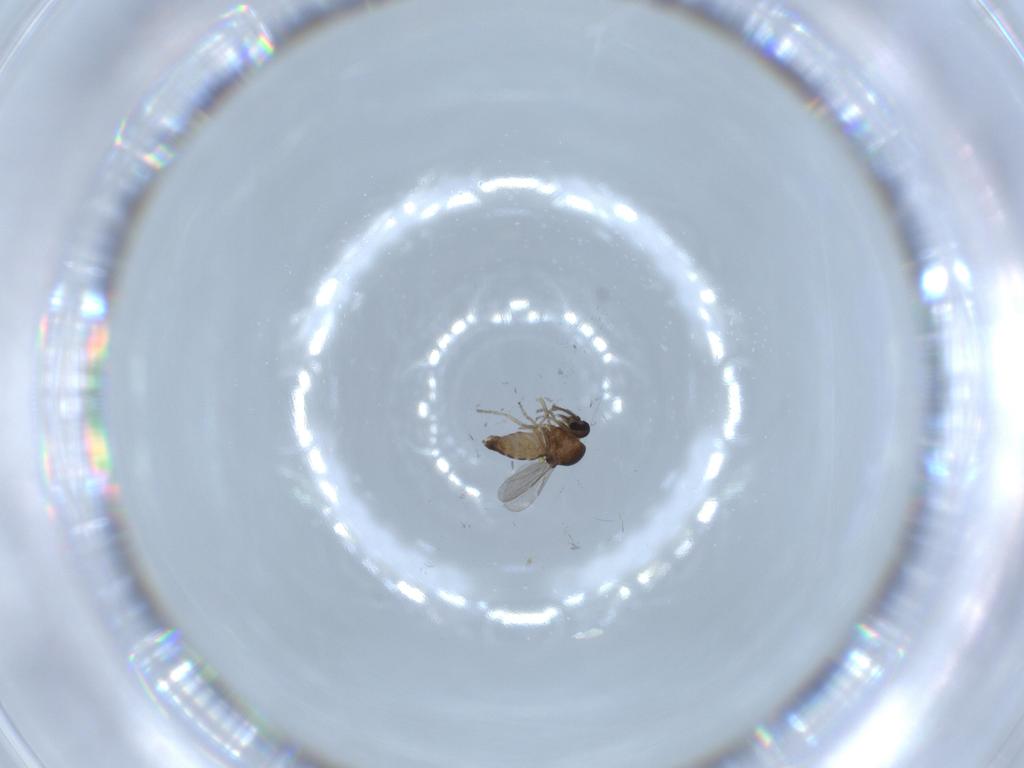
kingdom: Animalia
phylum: Arthropoda
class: Insecta
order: Diptera
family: Ceratopogonidae
